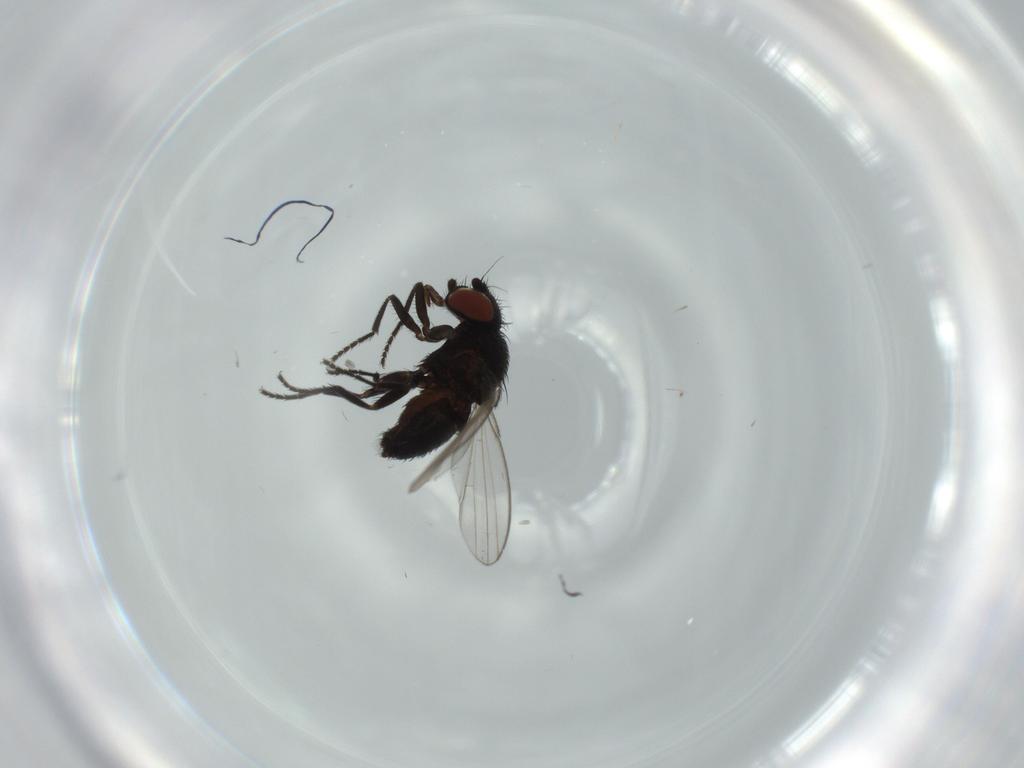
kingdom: Animalia
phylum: Arthropoda
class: Insecta
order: Diptera
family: Milichiidae
